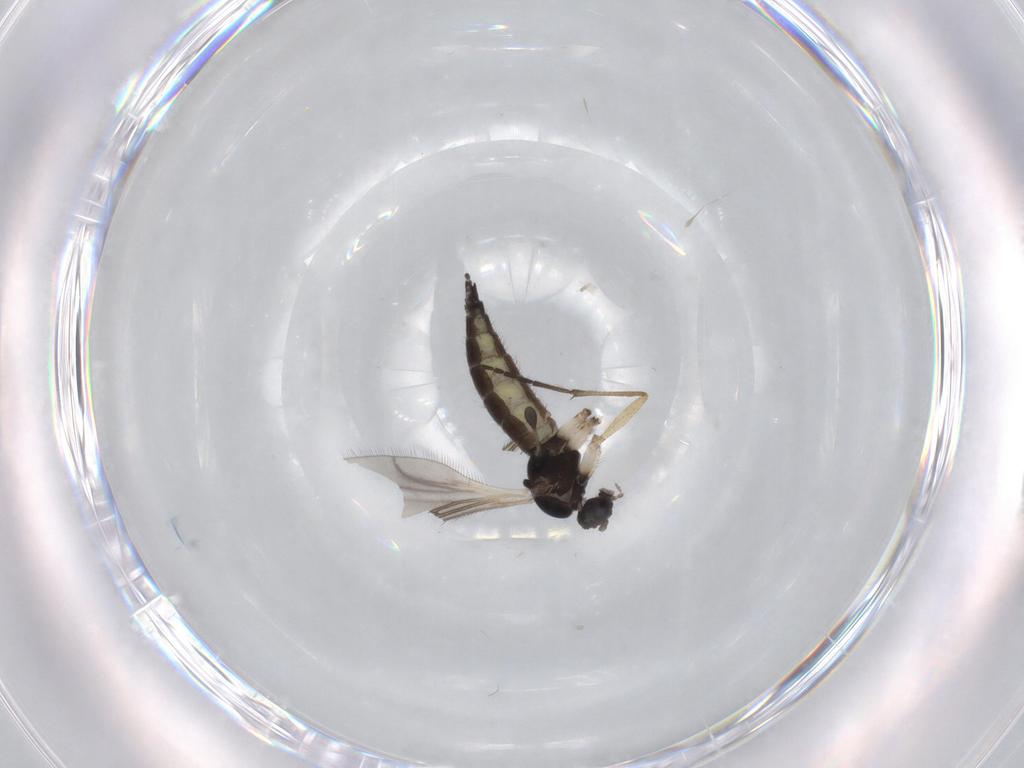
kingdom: Animalia
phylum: Arthropoda
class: Insecta
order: Diptera
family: Sciaridae
